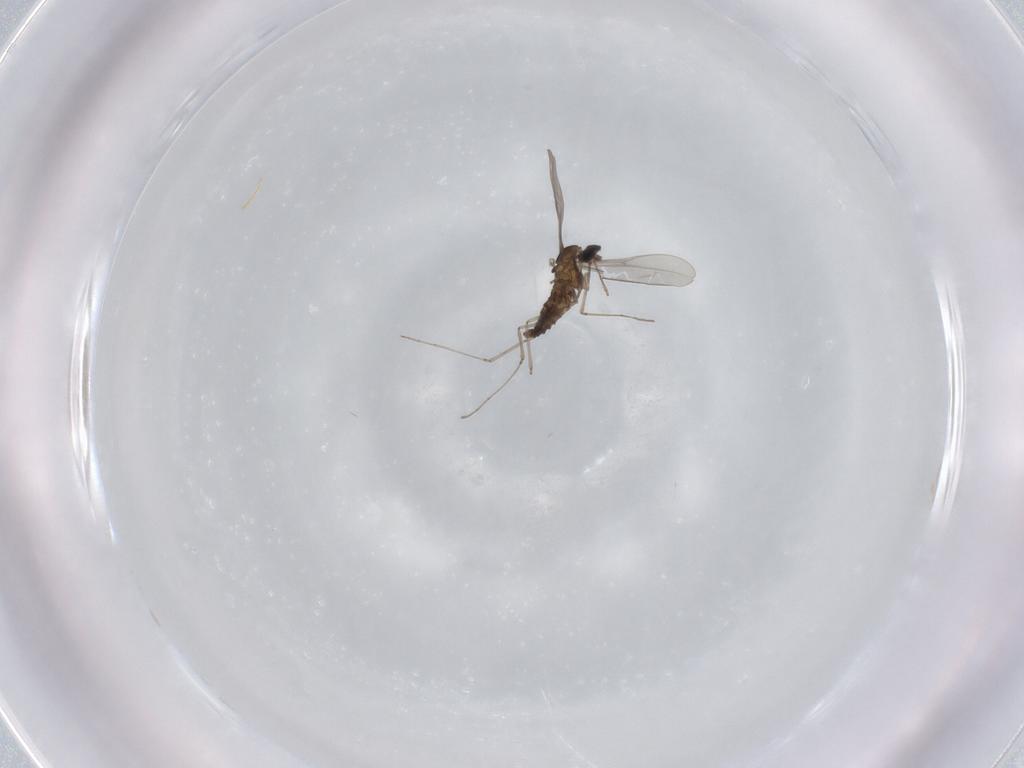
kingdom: Animalia
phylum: Arthropoda
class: Insecta
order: Diptera
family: Cecidomyiidae
